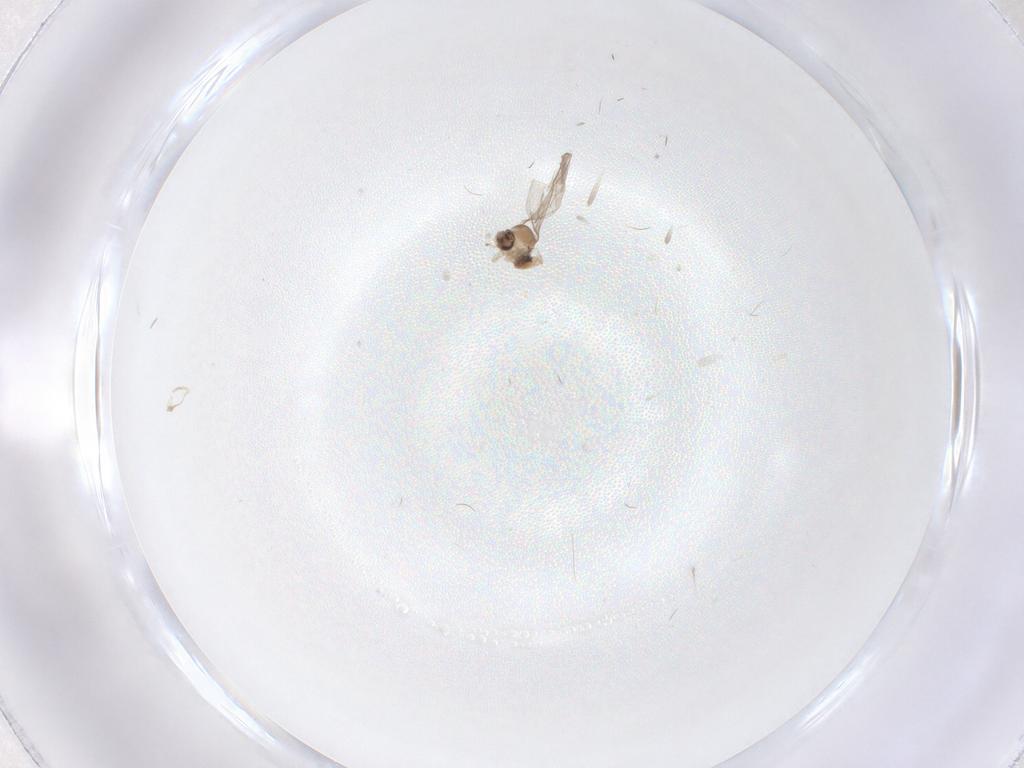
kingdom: Animalia
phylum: Arthropoda
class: Insecta
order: Diptera
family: Cecidomyiidae
